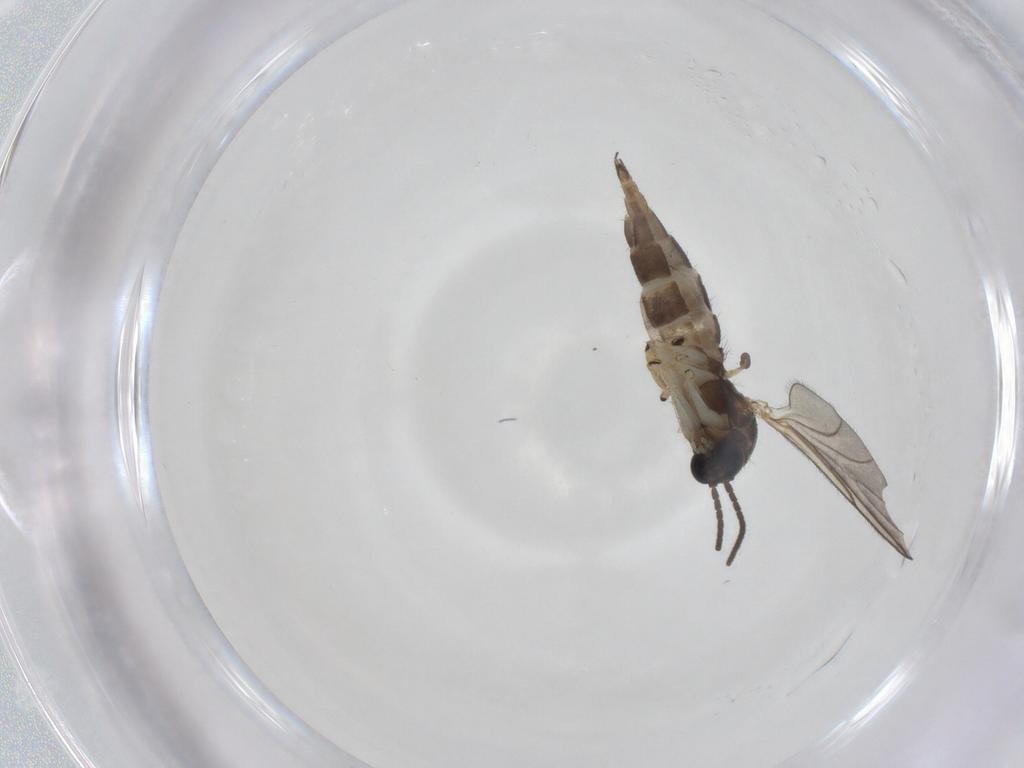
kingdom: Animalia
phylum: Arthropoda
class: Insecta
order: Diptera
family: Sciaridae
